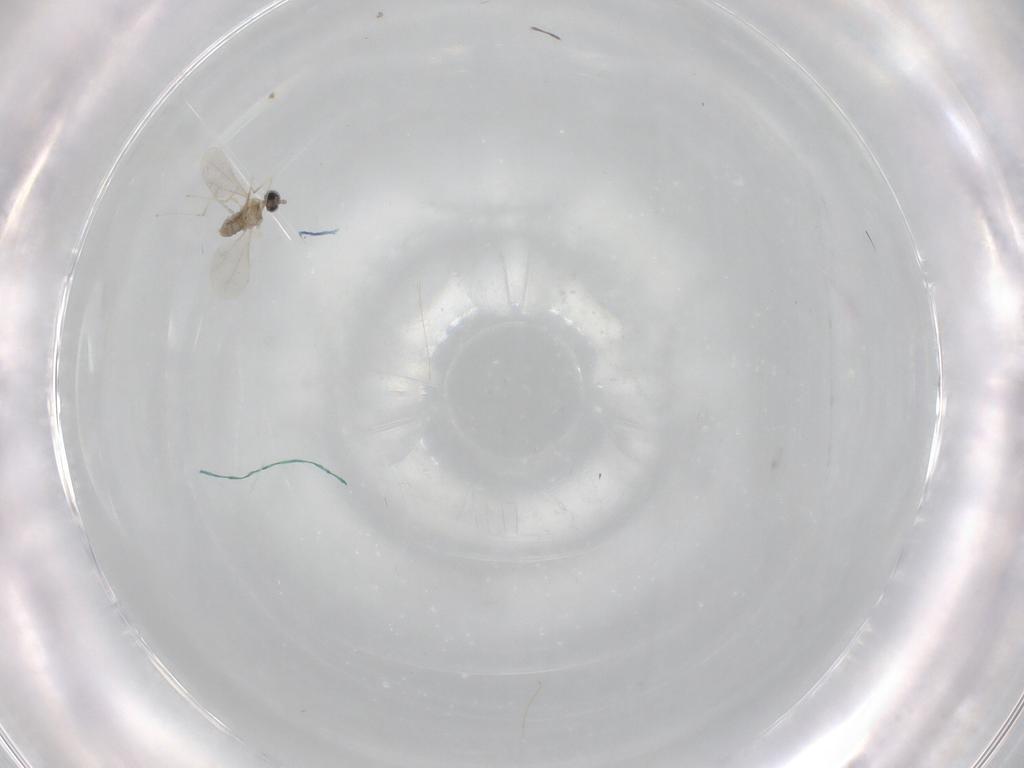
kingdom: Animalia
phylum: Arthropoda
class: Insecta
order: Diptera
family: Cecidomyiidae
